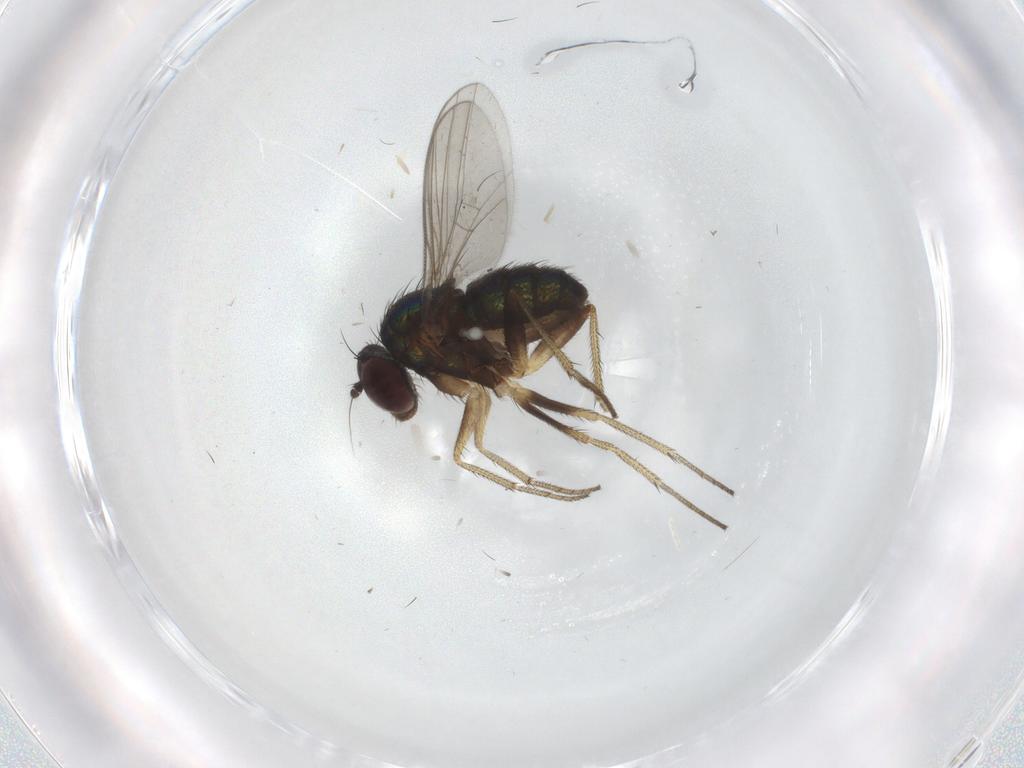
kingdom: Animalia
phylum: Arthropoda
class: Insecta
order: Diptera
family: Dolichopodidae
